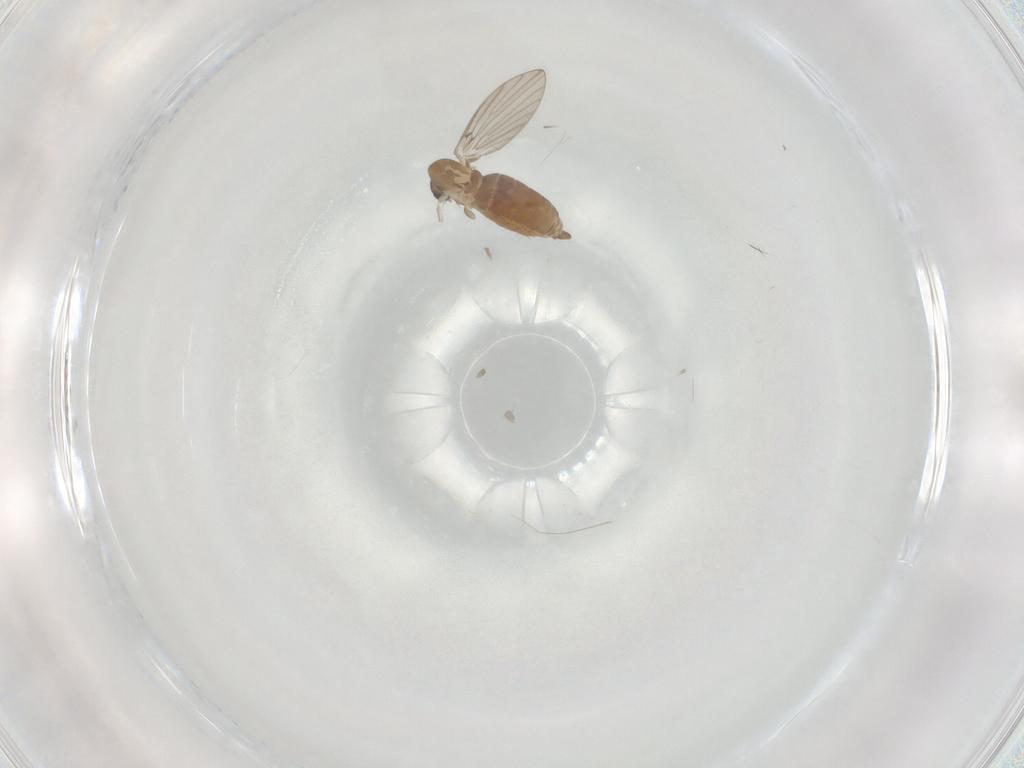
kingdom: Animalia
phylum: Arthropoda
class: Insecta
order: Diptera
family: Psychodidae
